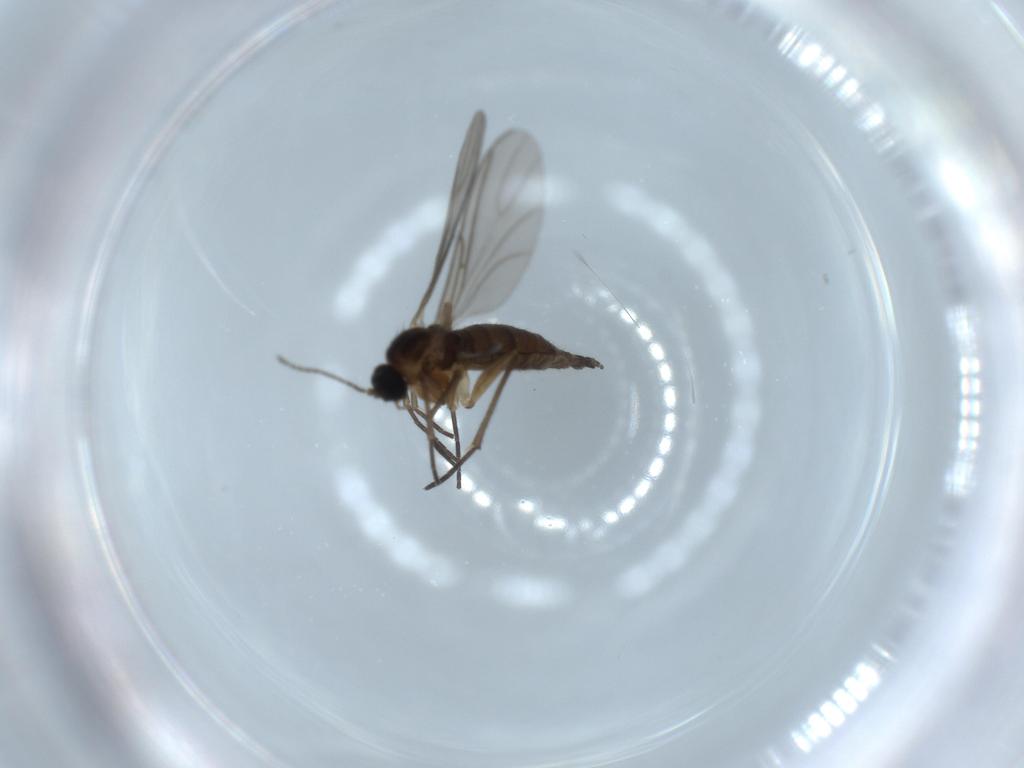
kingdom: Animalia
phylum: Arthropoda
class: Insecta
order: Diptera
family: Sciaridae
